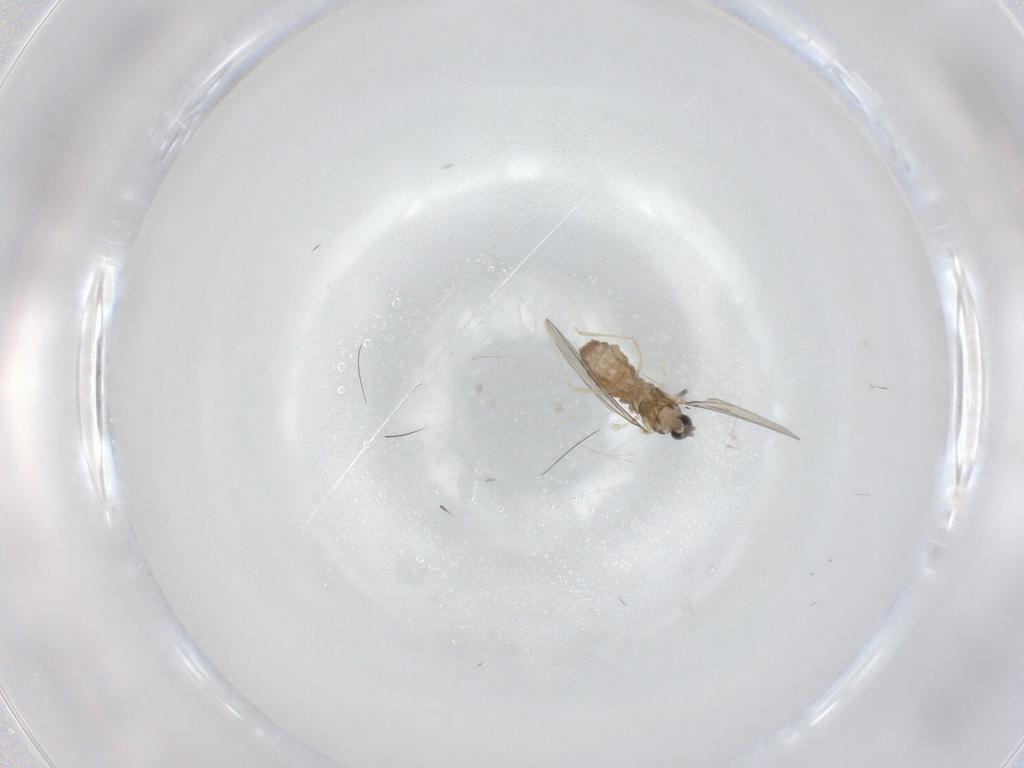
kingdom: Animalia
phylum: Arthropoda
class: Insecta
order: Diptera
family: Cecidomyiidae
